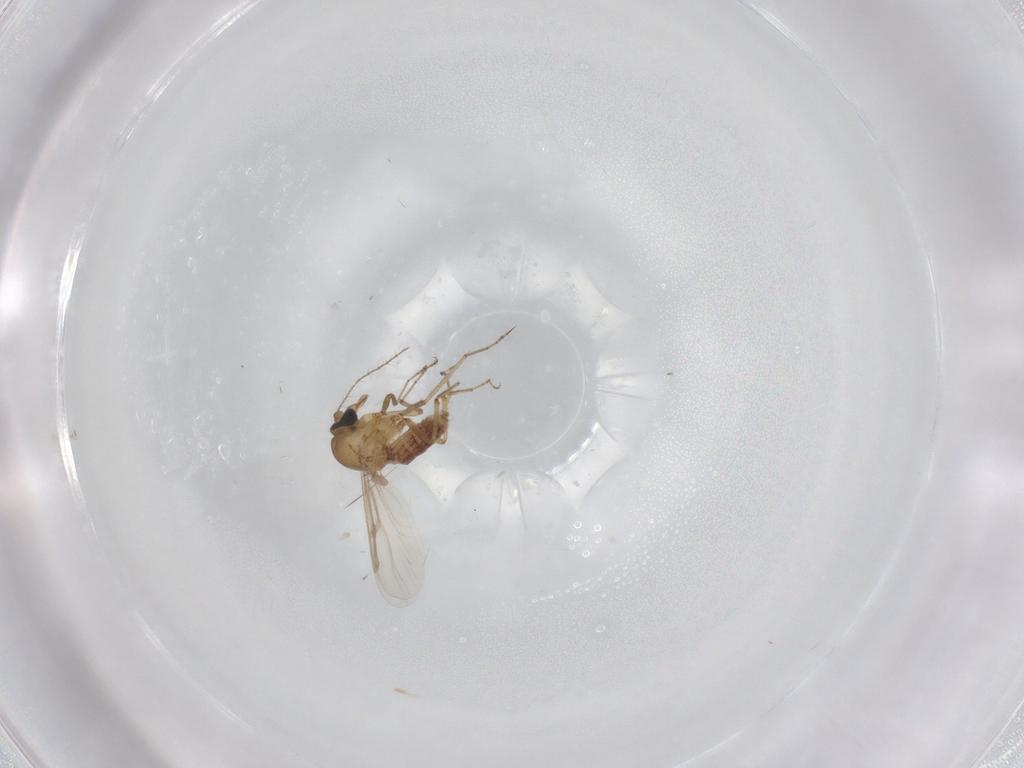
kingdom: Animalia
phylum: Arthropoda
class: Insecta
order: Diptera
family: Ceratopogonidae
